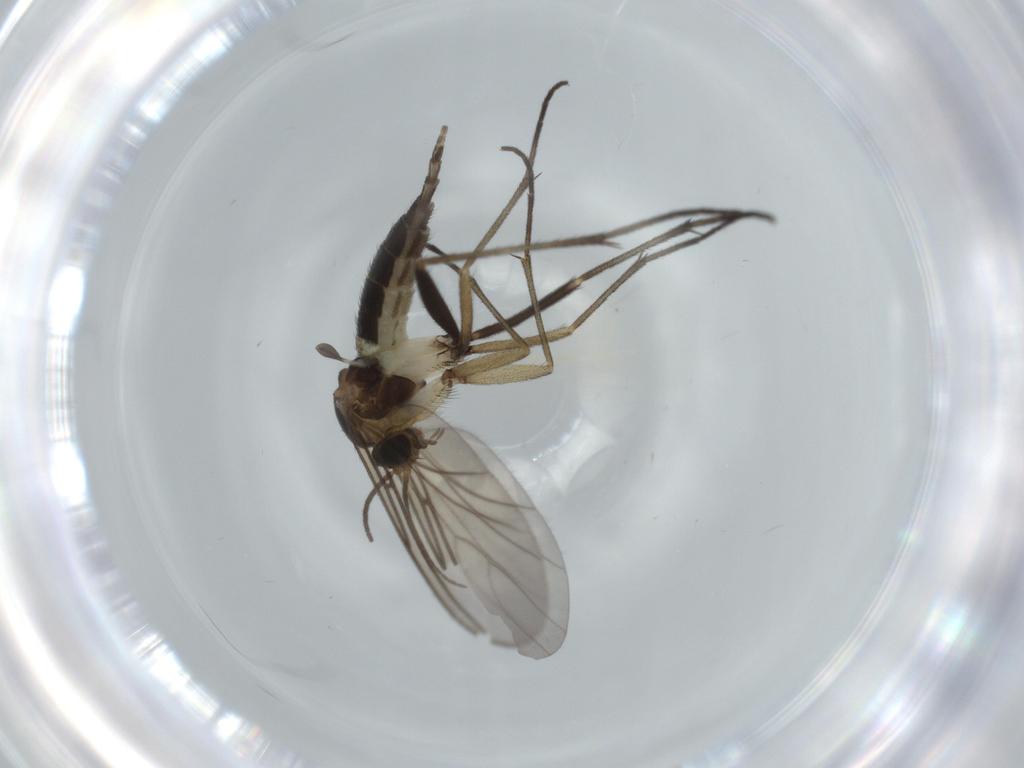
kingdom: Animalia
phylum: Arthropoda
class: Insecta
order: Diptera
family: Sciaridae
